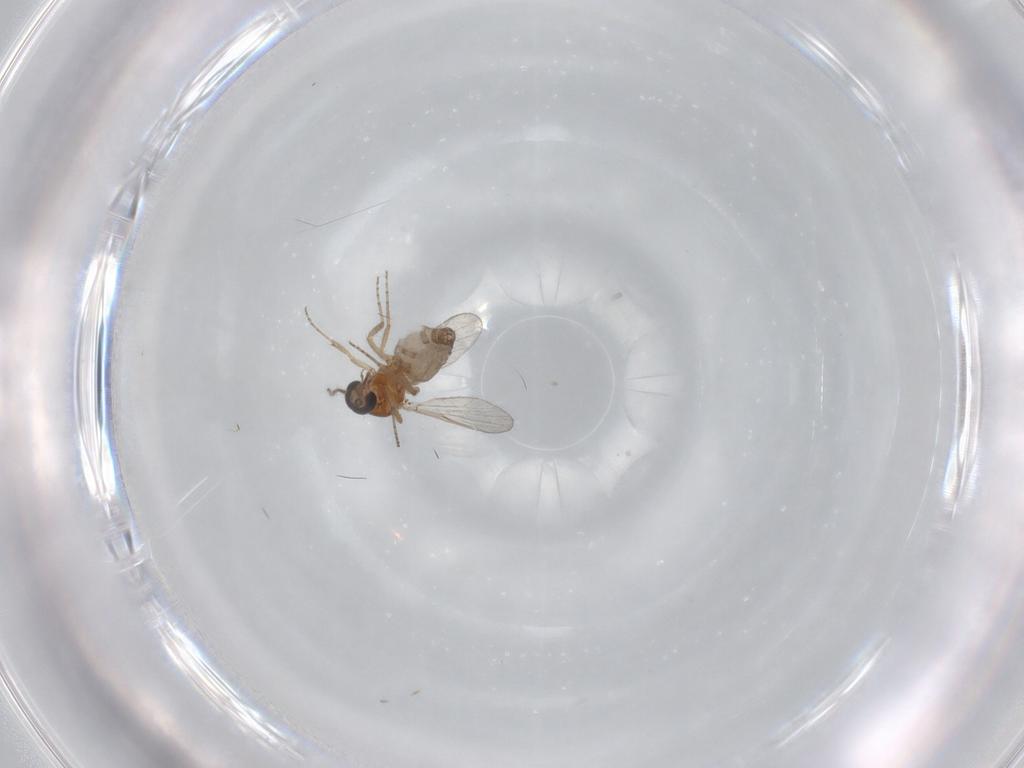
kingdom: Animalia
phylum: Arthropoda
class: Insecta
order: Diptera
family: Ceratopogonidae
